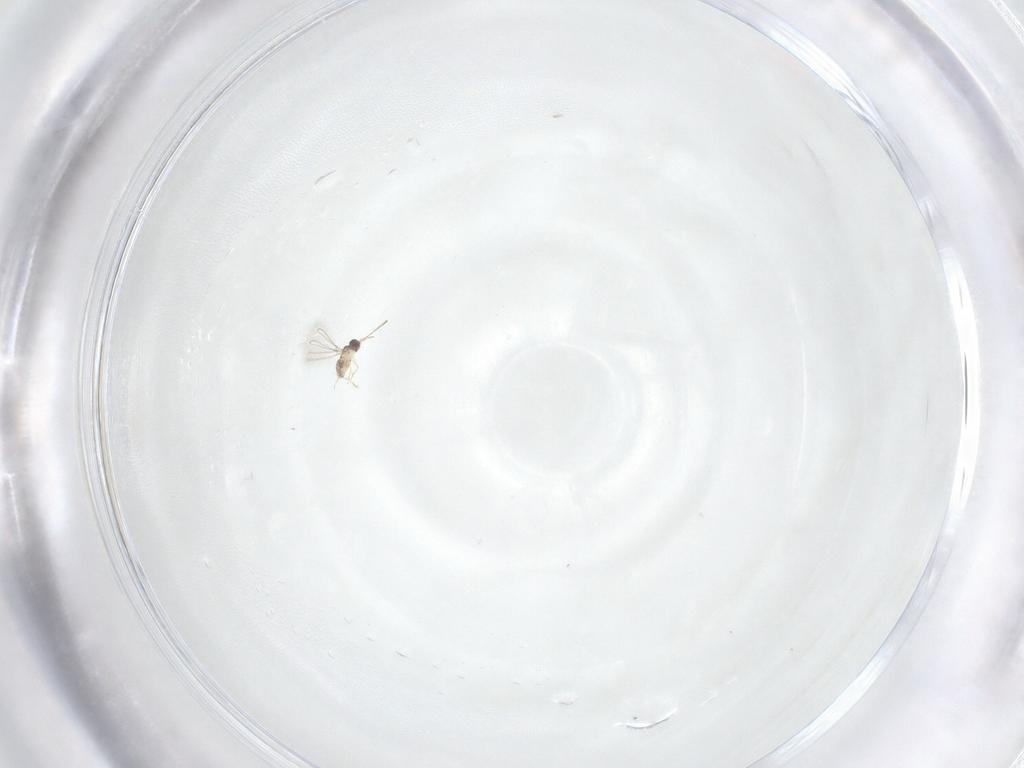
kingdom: Animalia
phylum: Arthropoda
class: Insecta
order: Hymenoptera
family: Mymaridae
